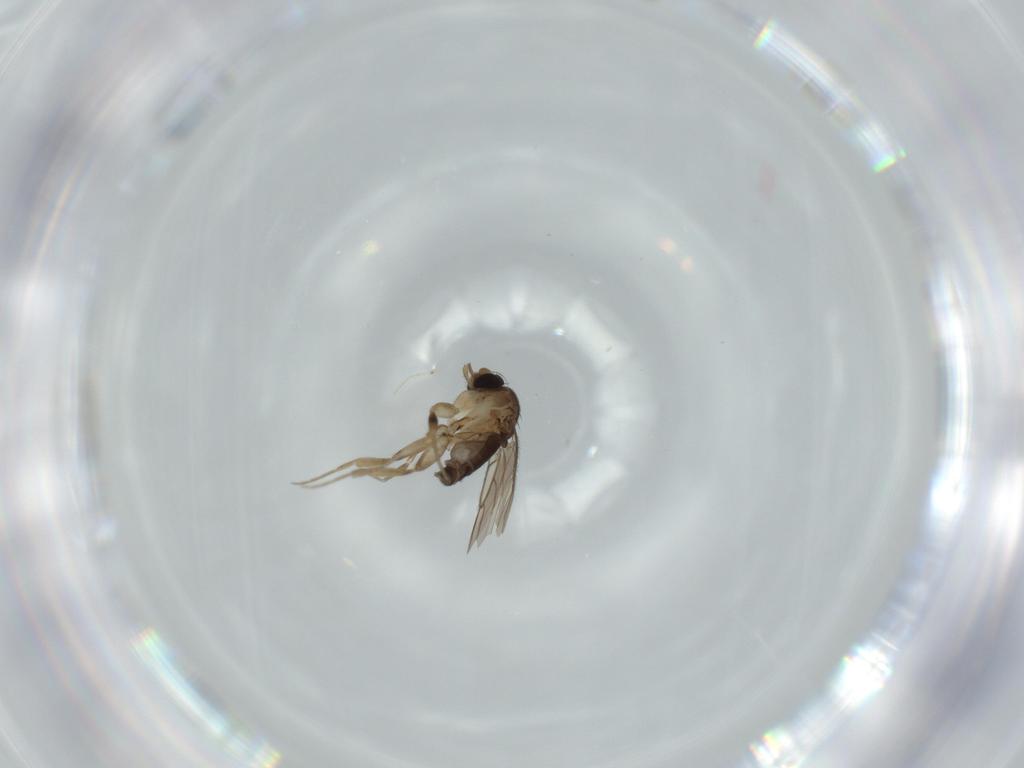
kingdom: Animalia
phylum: Arthropoda
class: Insecta
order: Diptera
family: Phoridae
